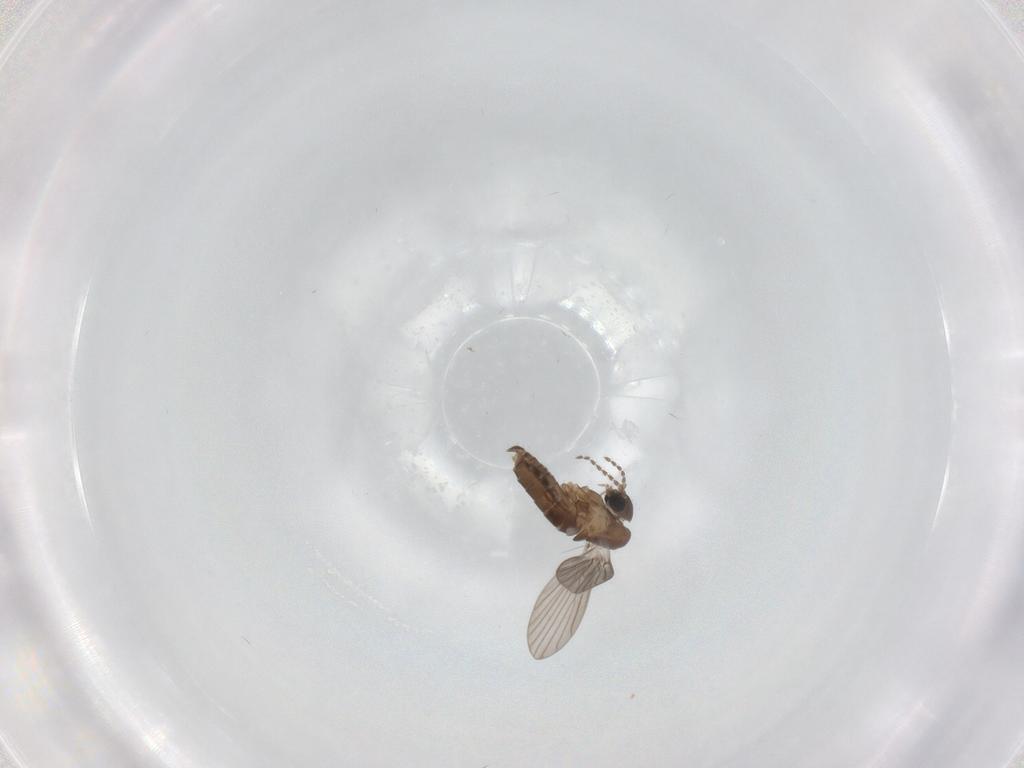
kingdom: Animalia
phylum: Arthropoda
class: Insecta
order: Diptera
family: Bibionidae
